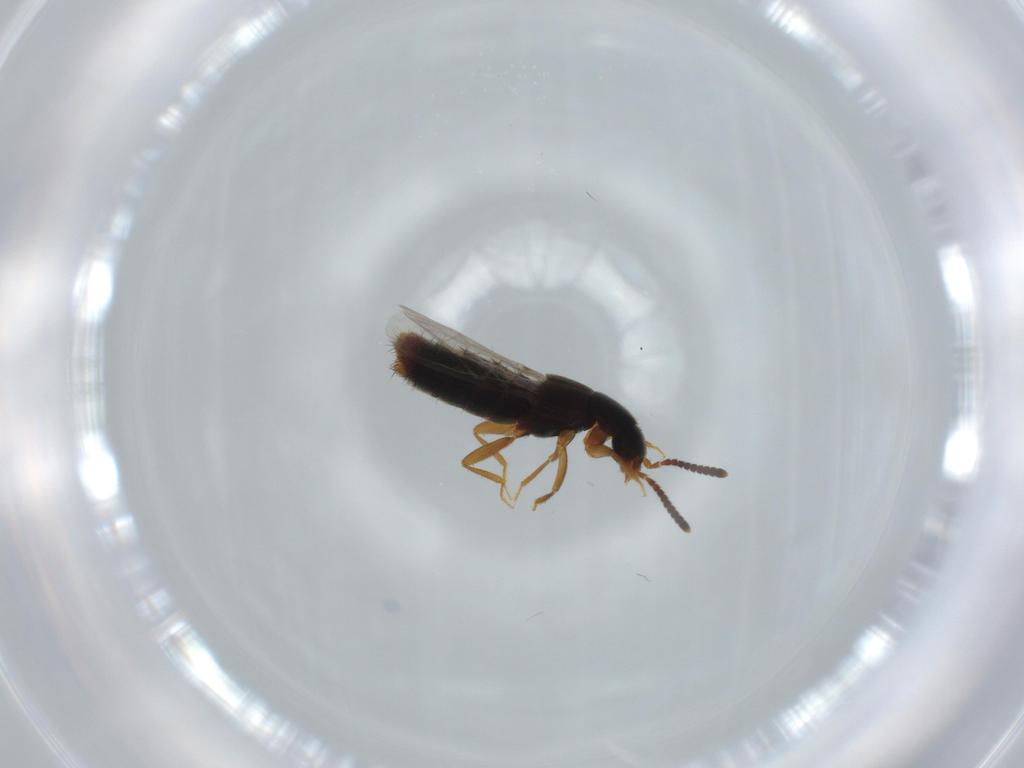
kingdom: Animalia
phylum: Arthropoda
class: Insecta
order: Coleoptera
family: Staphylinidae
